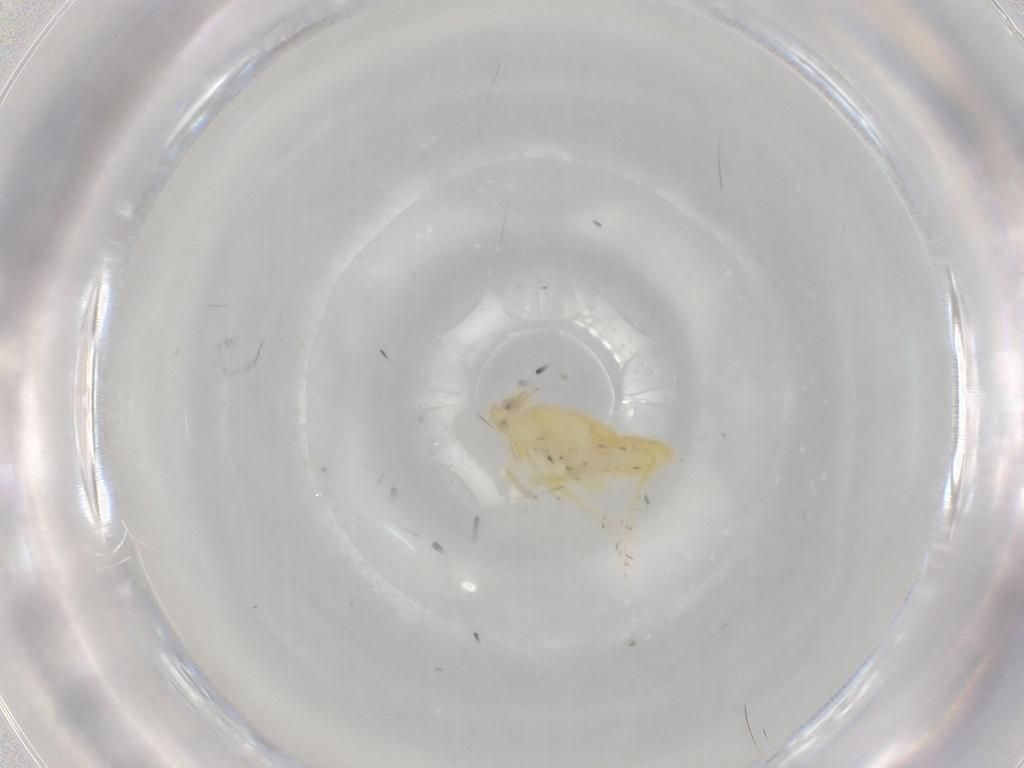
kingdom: Animalia
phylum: Arthropoda
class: Insecta
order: Hemiptera
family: Delphacidae
